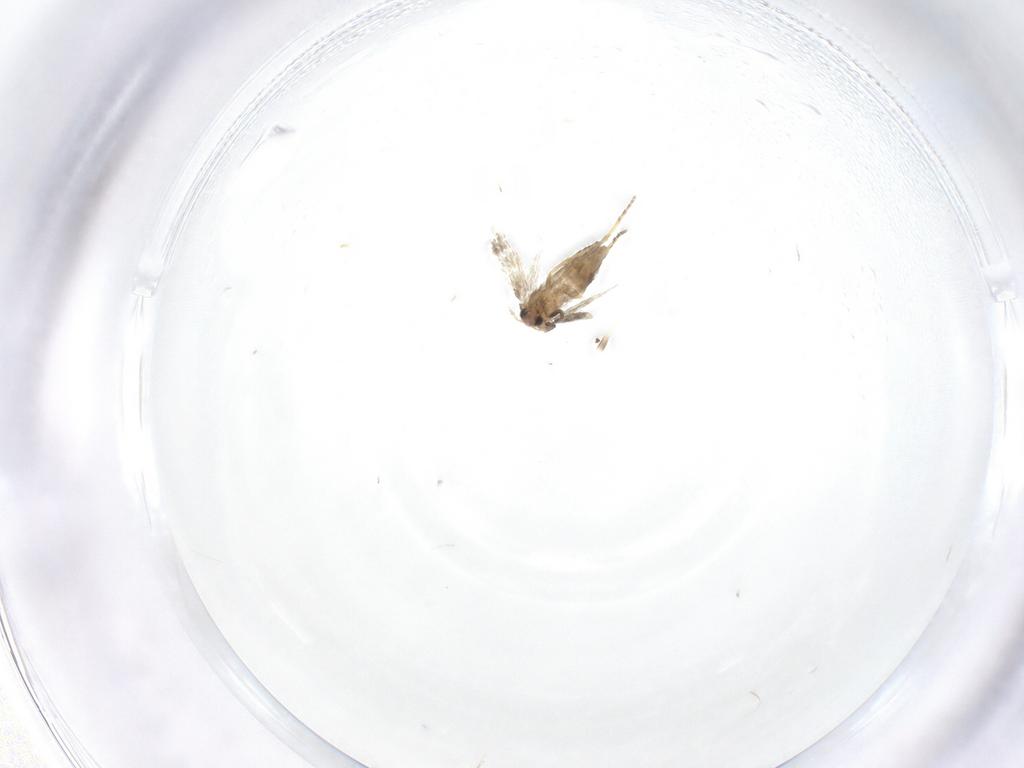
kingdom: Animalia
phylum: Arthropoda
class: Insecta
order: Lepidoptera
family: Nepticulidae
